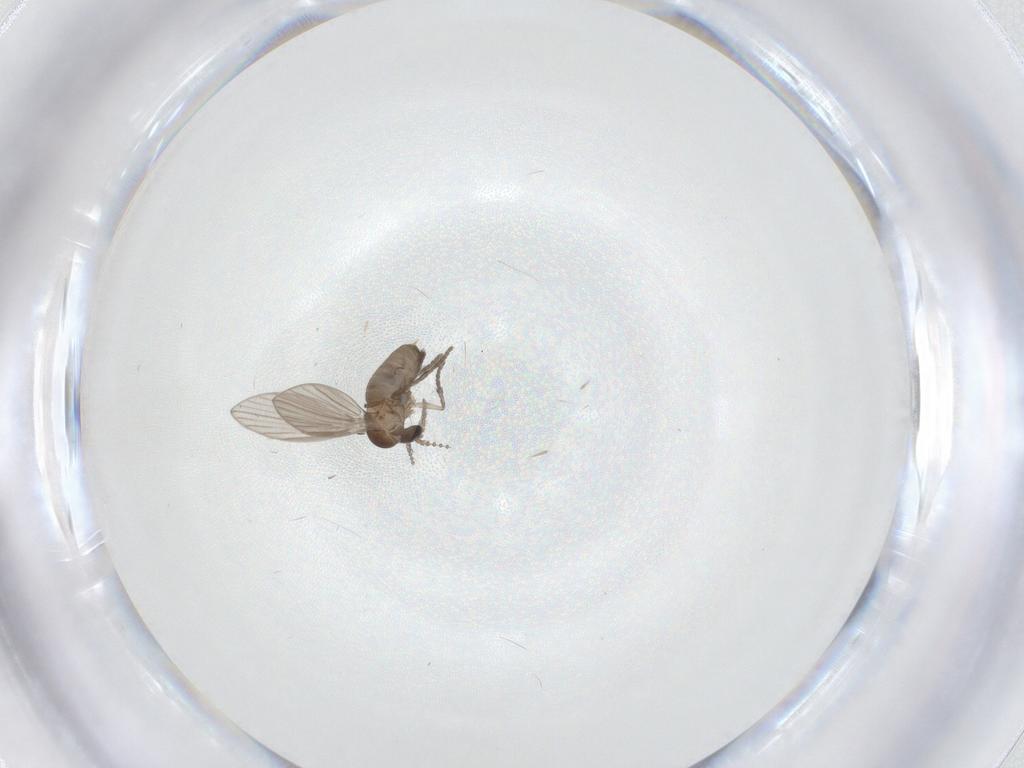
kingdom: Animalia
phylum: Arthropoda
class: Insecta
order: Diptera
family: Psychodidae
